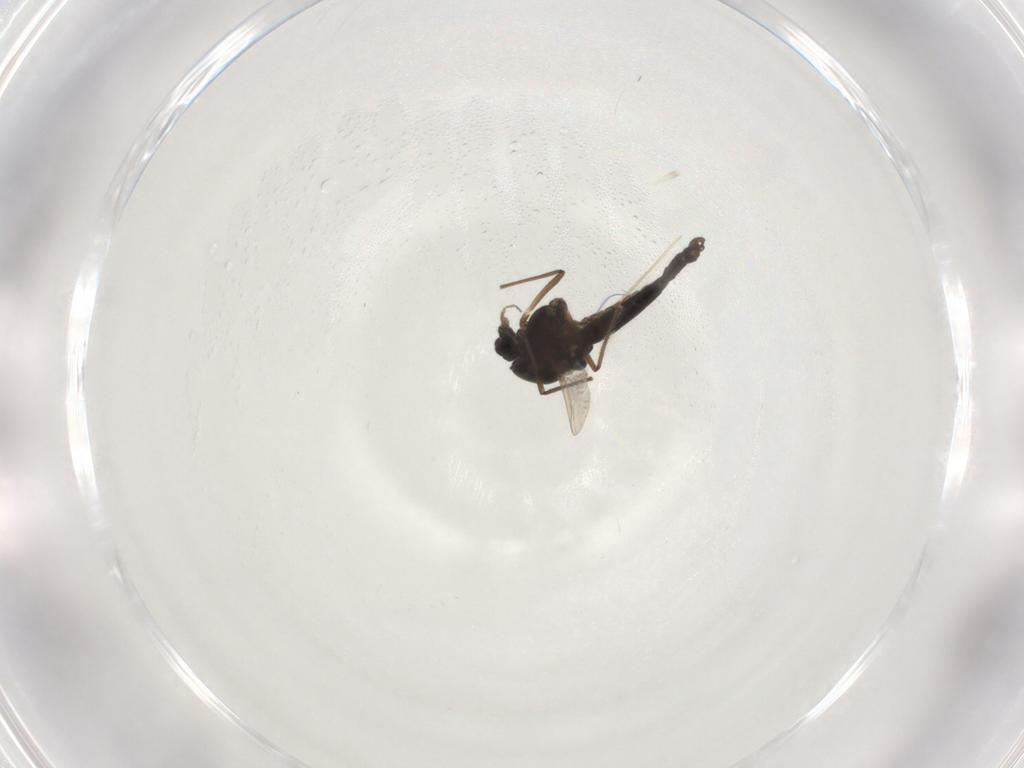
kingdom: Animalia
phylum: Arthropoda
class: Insecta
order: Diptera
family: Chironomidae
